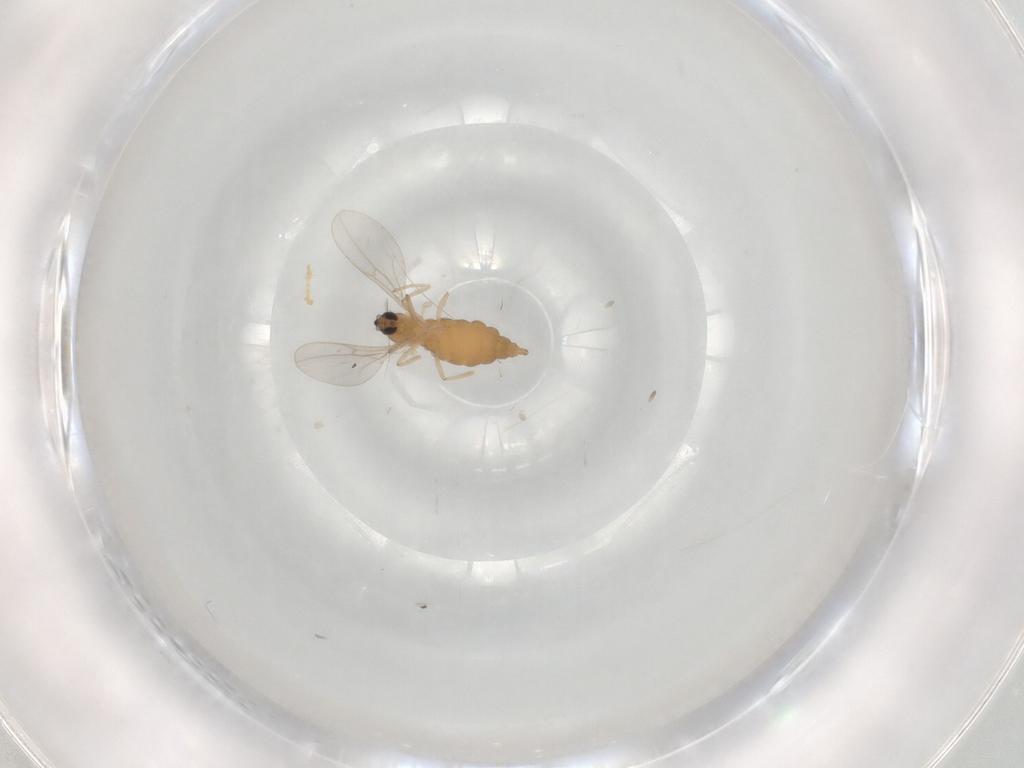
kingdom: Animalia
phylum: Arthropoda
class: Insecta
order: Diptera
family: Cecidomyiidae
